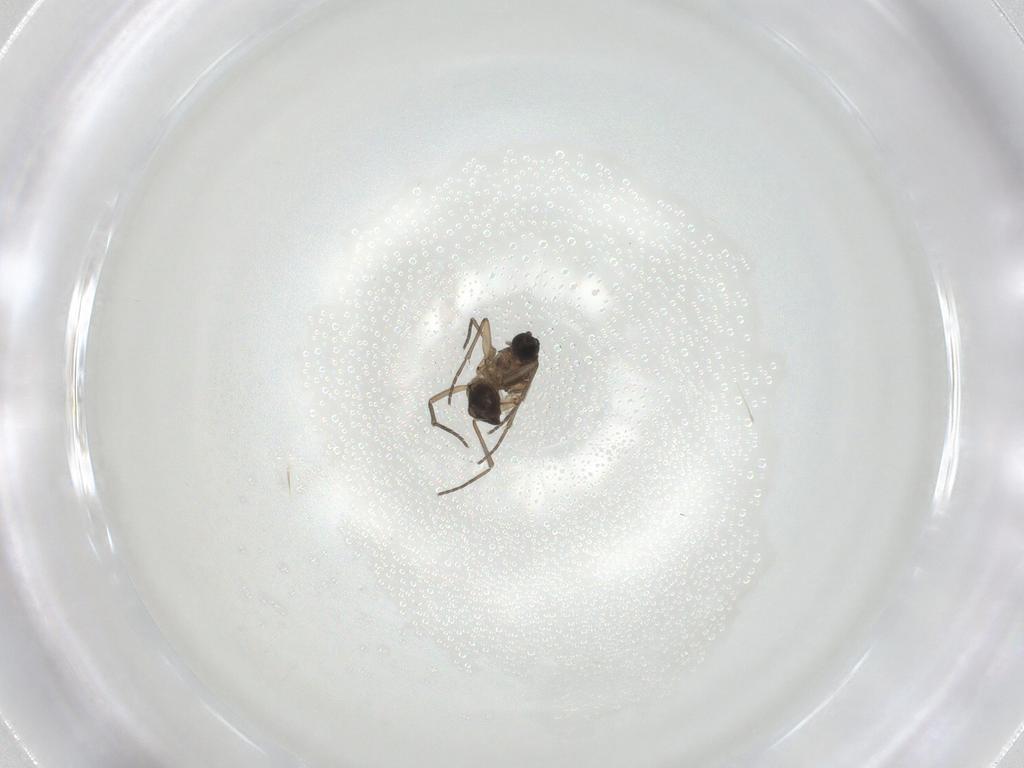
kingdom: Animalia
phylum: Arthropoda
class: Insecta
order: Diptera
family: Sciaridae
